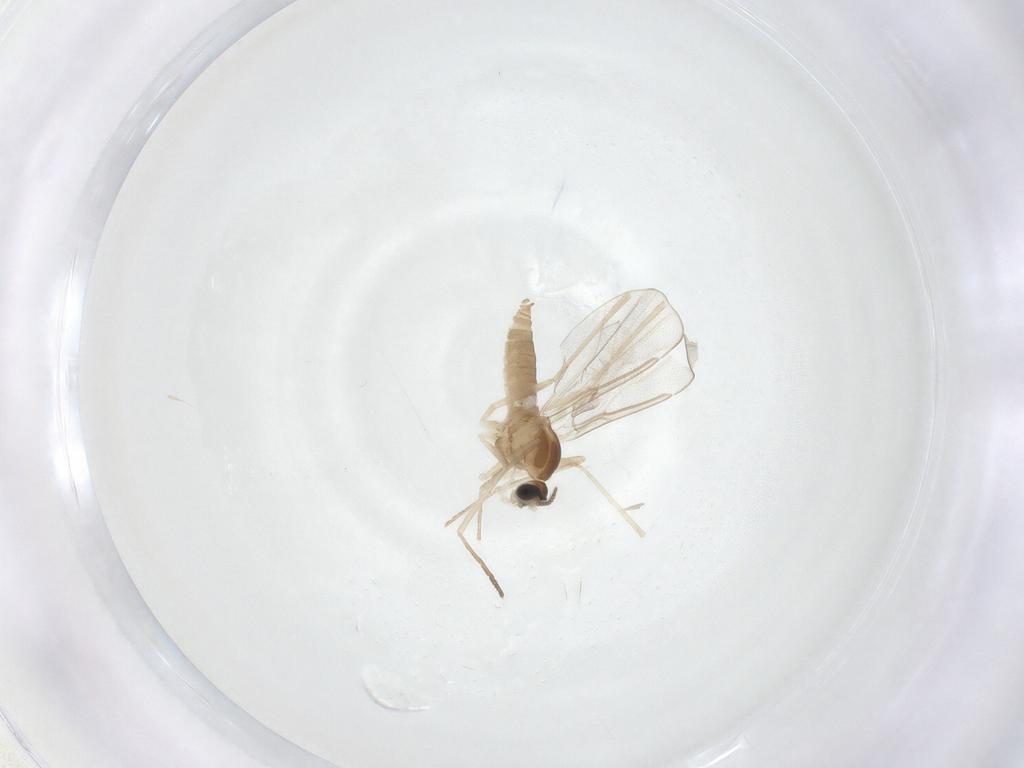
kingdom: Animalia
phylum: Arthropoda
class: Insecta
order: Diptera
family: Cecidomyiidae
